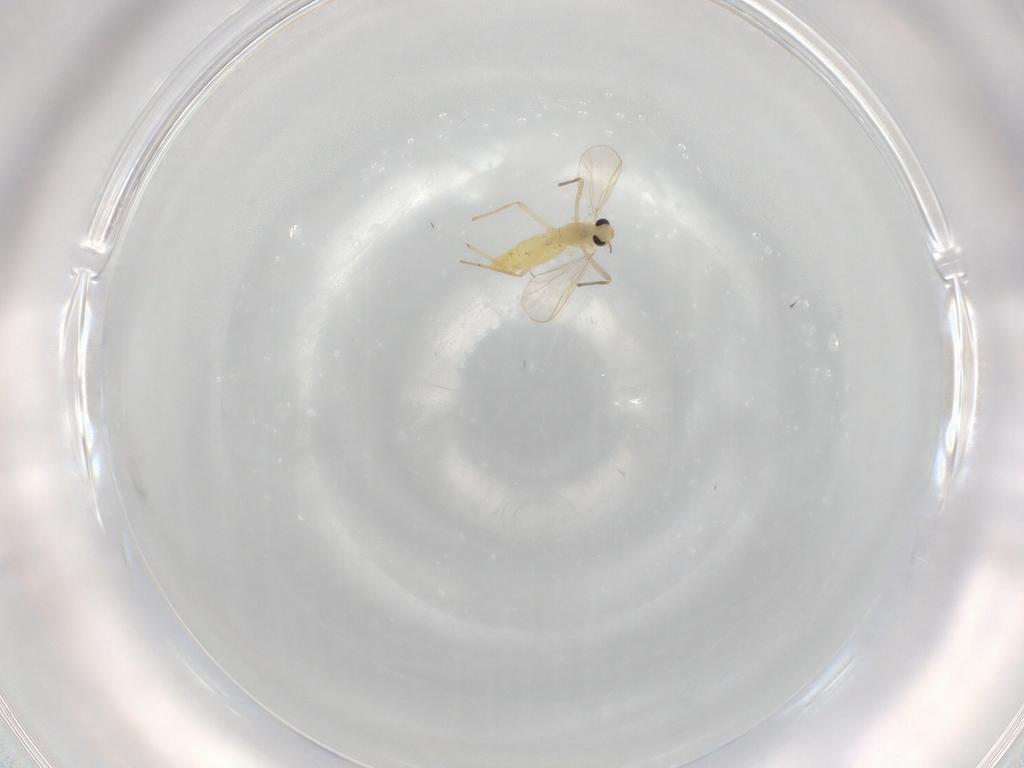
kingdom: Animalia
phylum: Arthropoda
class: Insecta
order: Diptera
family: Chironomidae
